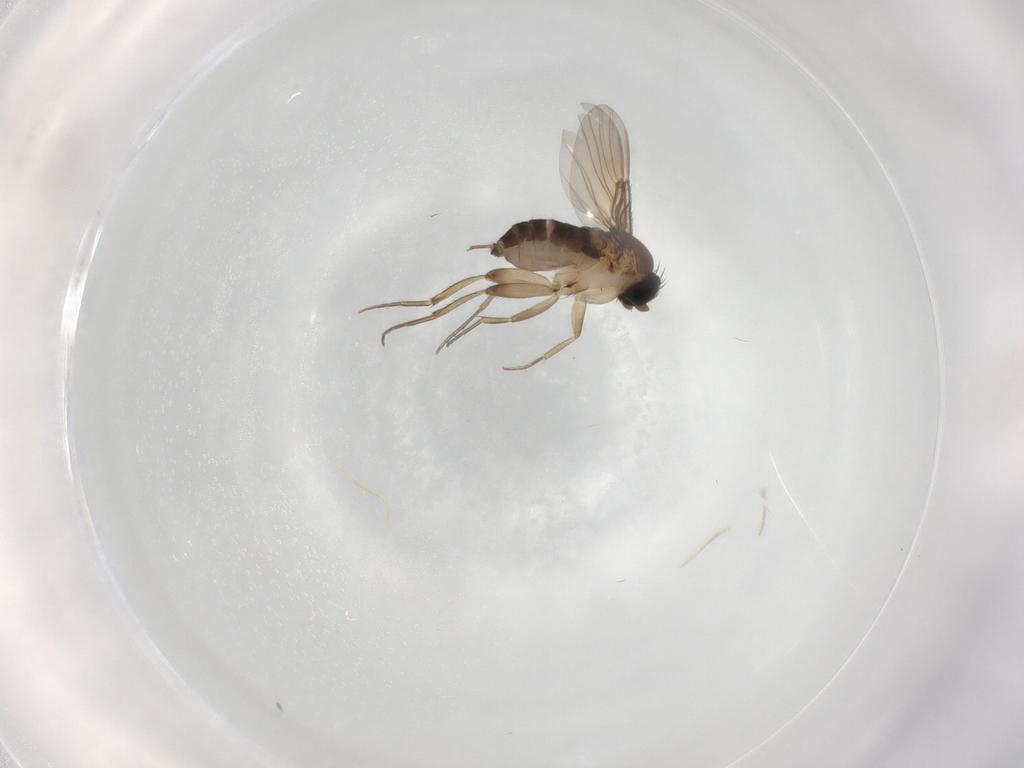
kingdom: Animalia
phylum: Arthropoda
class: Insecta
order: Diptera
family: Phoridae
